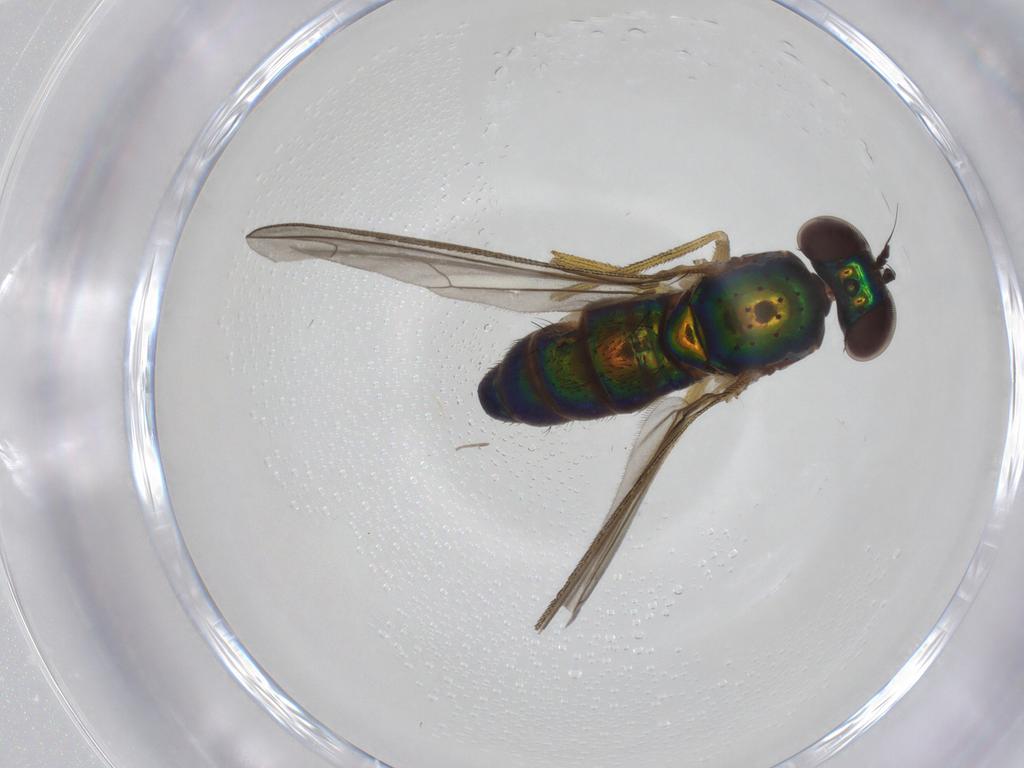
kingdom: Animalia
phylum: Arthropoda
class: Insecta
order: Diptera
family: Dolichopodidae
